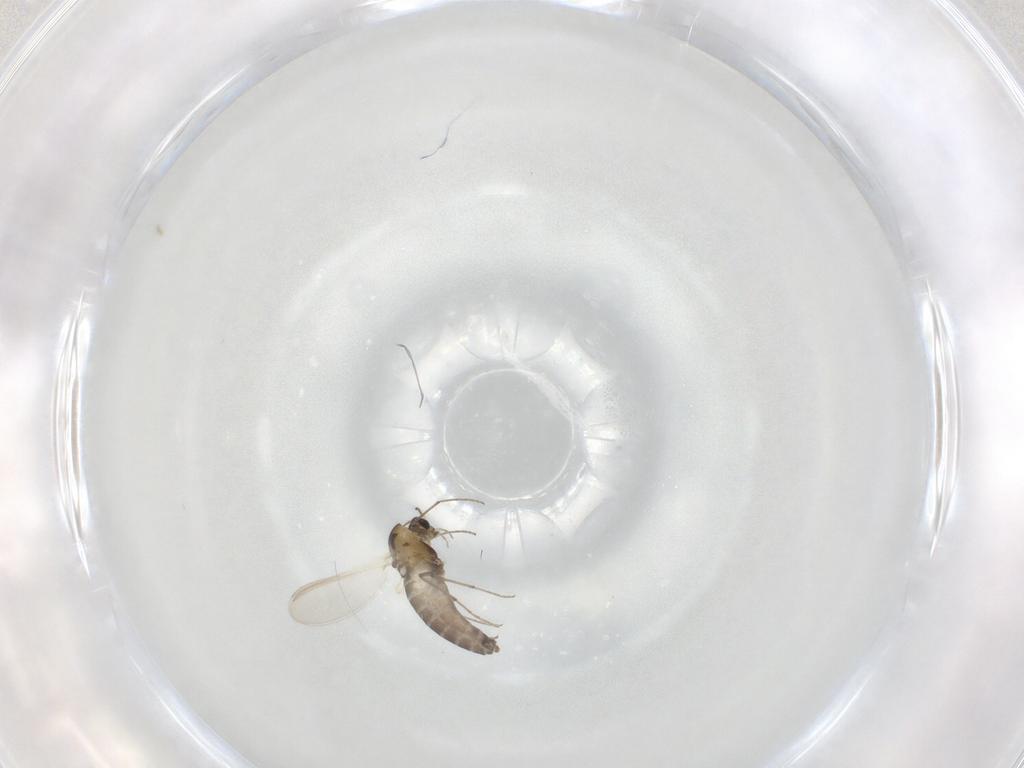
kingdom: Animalia
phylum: Arthropoda
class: Insecta
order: Diptera
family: Muscidae
